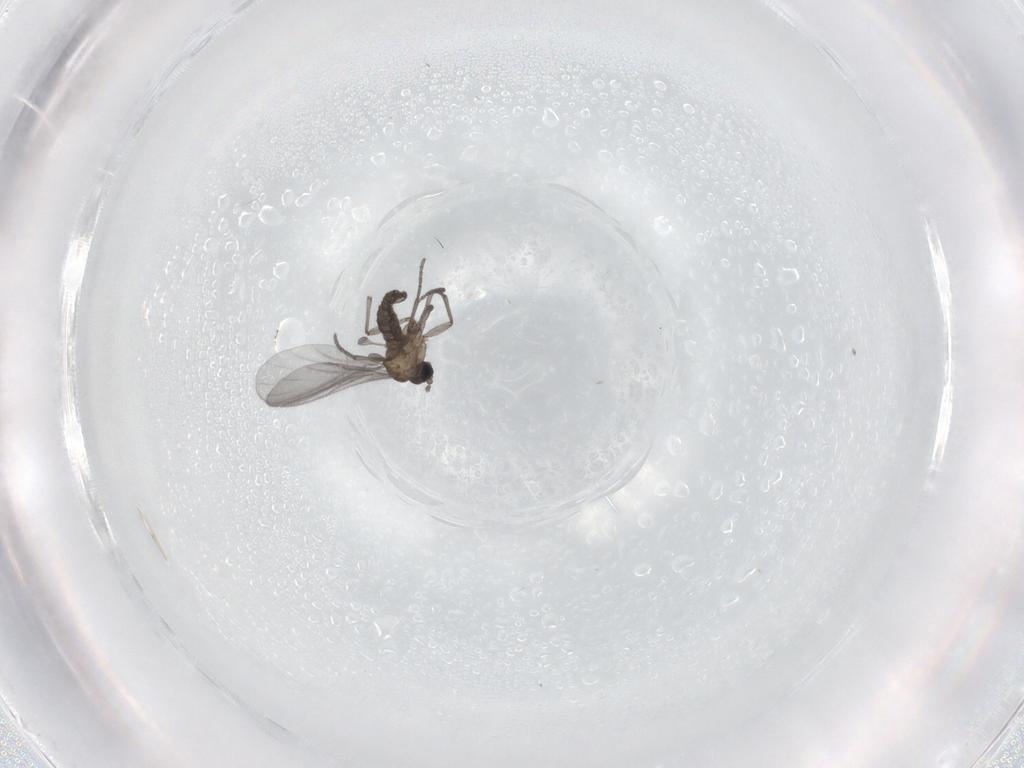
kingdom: Animalia
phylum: Arthropoda
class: Insecta
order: Diptera
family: Sciaridae
